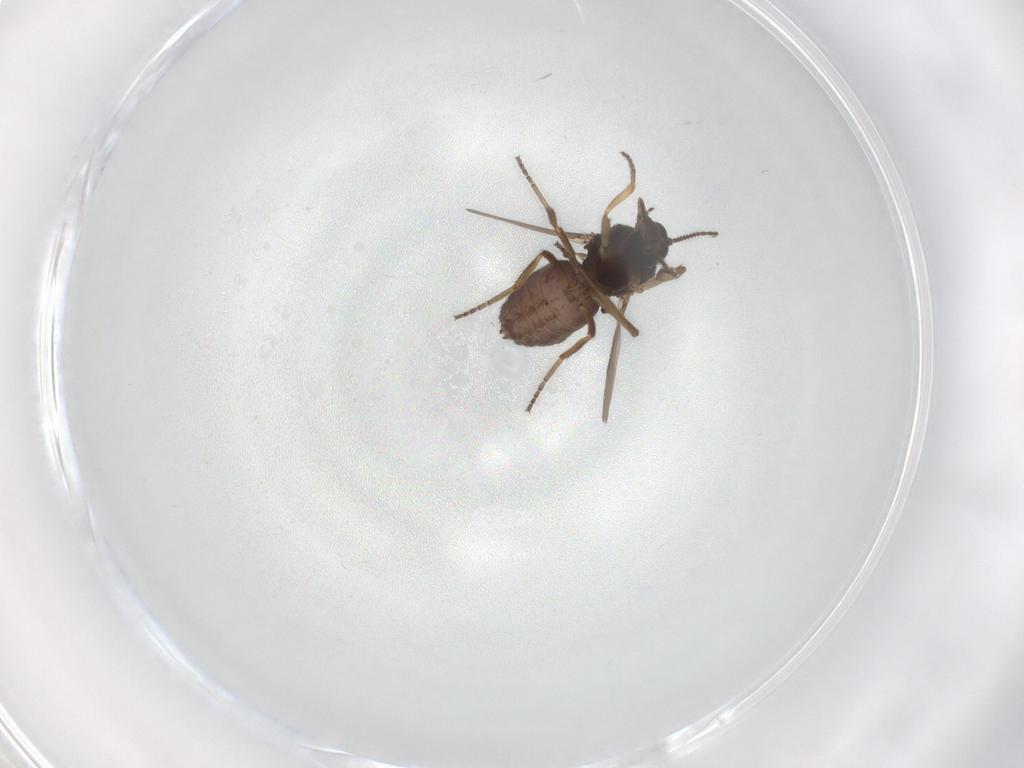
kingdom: Animalia
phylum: Arthropoda
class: Insecta
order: Diptera
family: Ceratopogonidae
